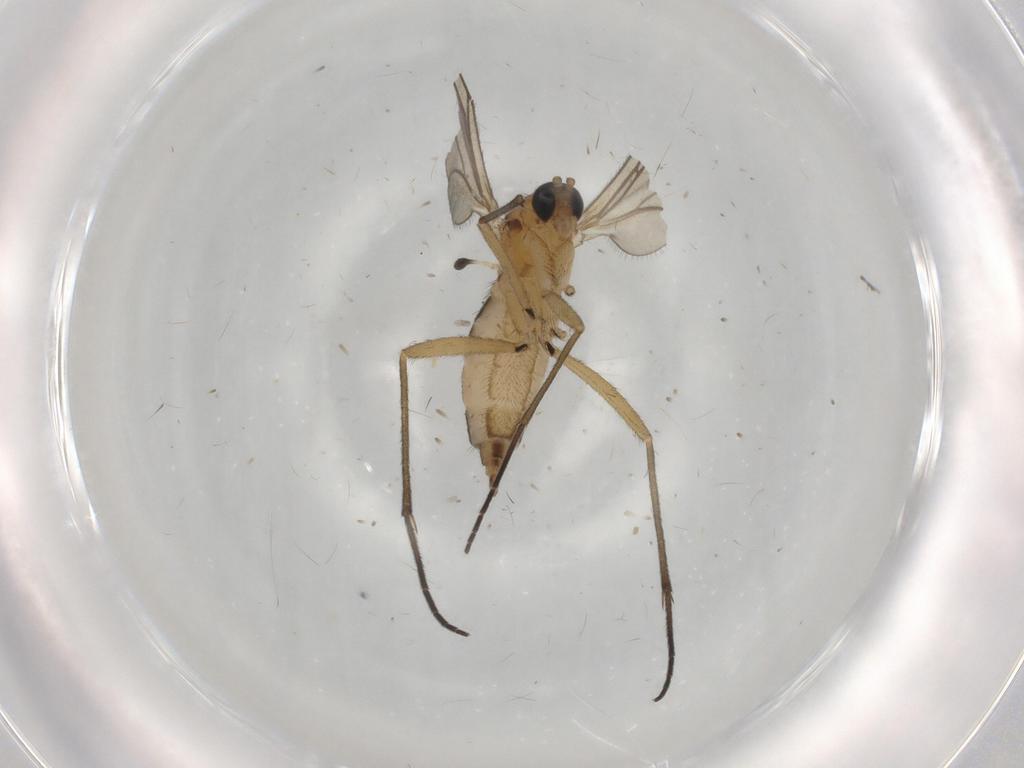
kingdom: Animalia
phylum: Arthropoda
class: Insecta
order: Diptera
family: Sciaridae
